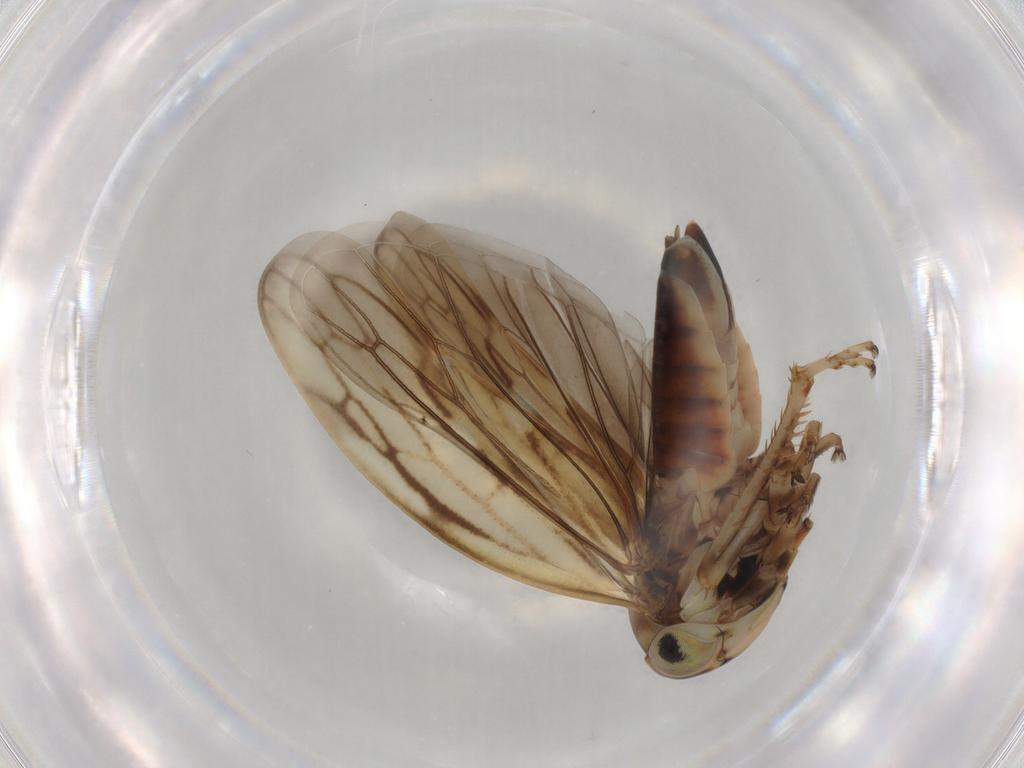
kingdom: Animalia
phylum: Arthropoda
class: Insecta
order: Hemiptera
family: Cicadellidae
